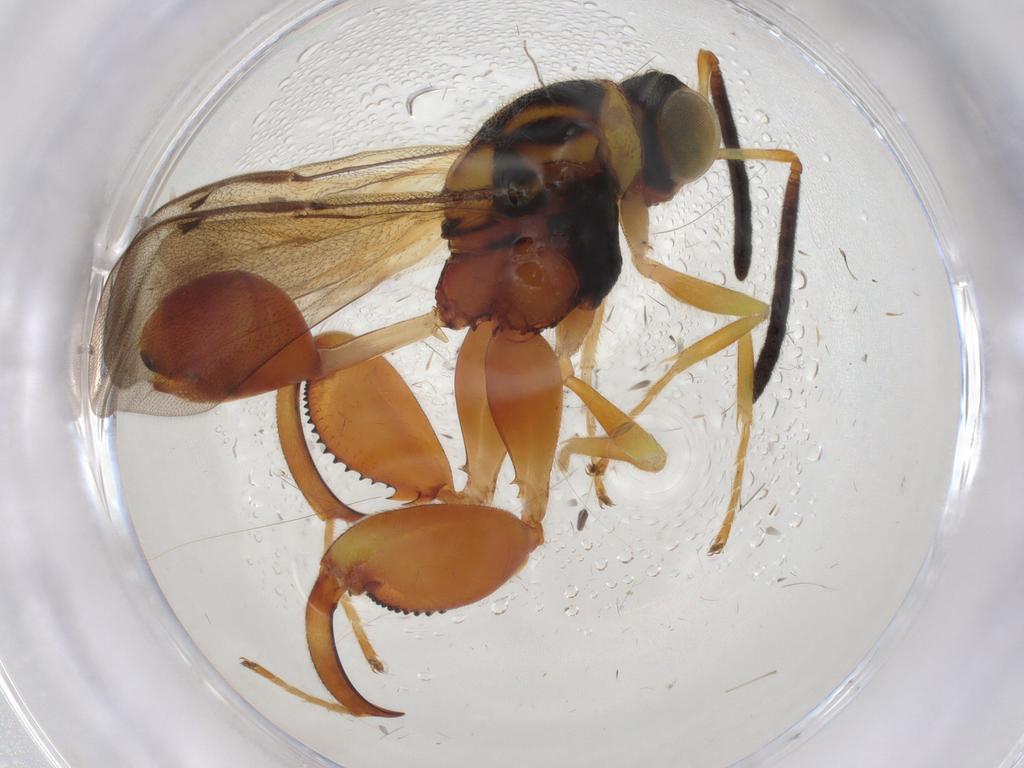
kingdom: Animalia
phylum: Arthropoda
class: Insecta
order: Hymenoptera
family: Chalcididae
